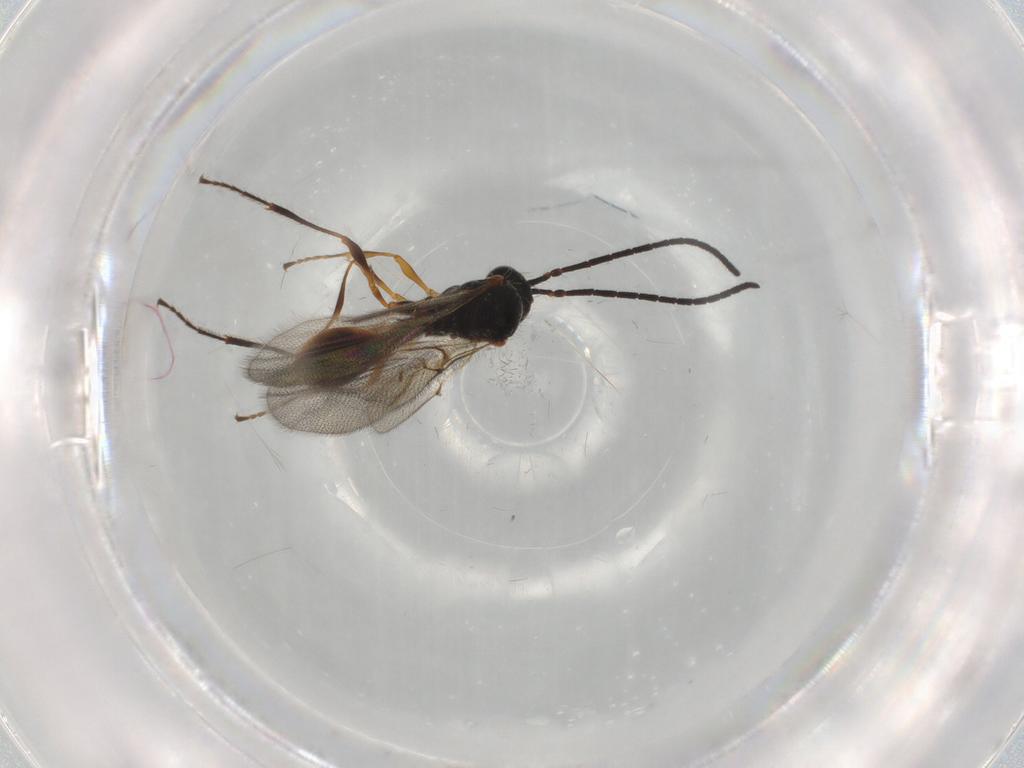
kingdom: Animalia
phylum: Arthropoda
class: Insecta
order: Hymenoptera
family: Diapriidae
